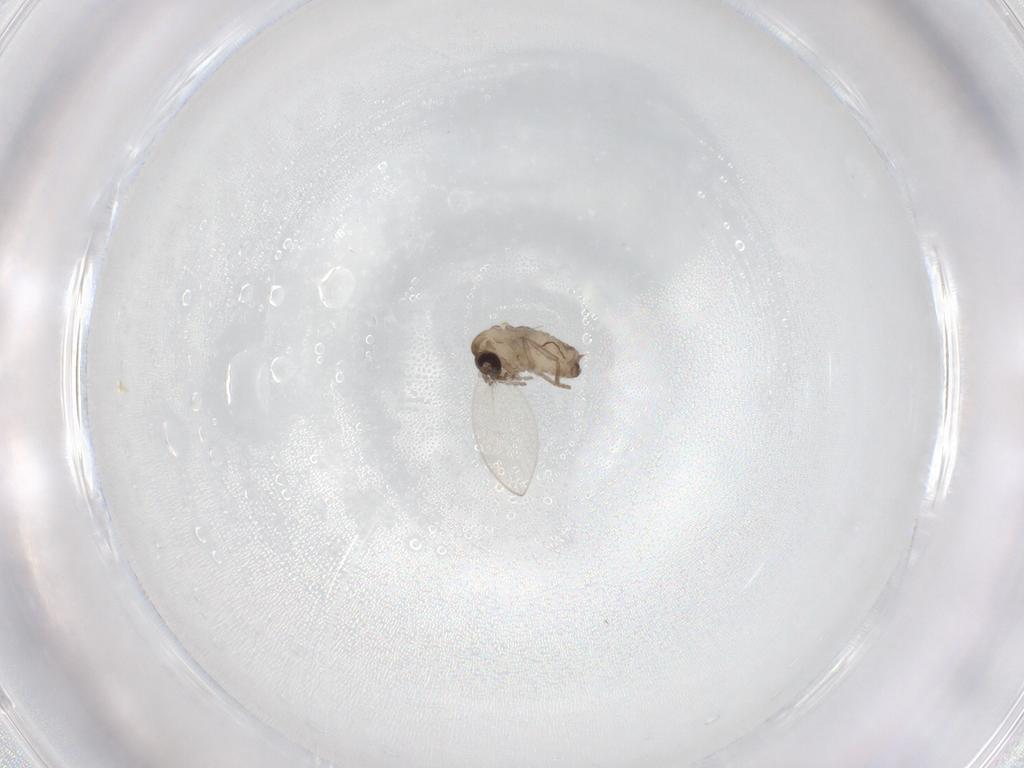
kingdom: Animalia
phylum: Arthropoda
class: Insecta
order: Diptera
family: Psychodidae
